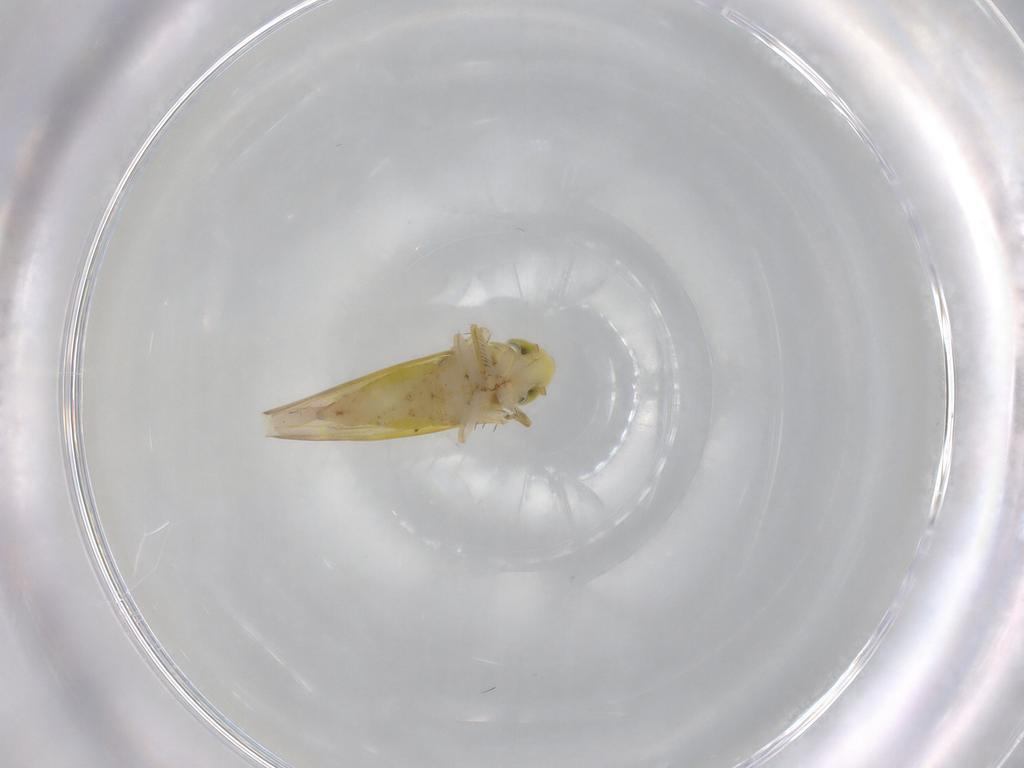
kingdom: Animalia
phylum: Arthropoda
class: Insecta
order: Hemiptera
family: Cicadellidae
